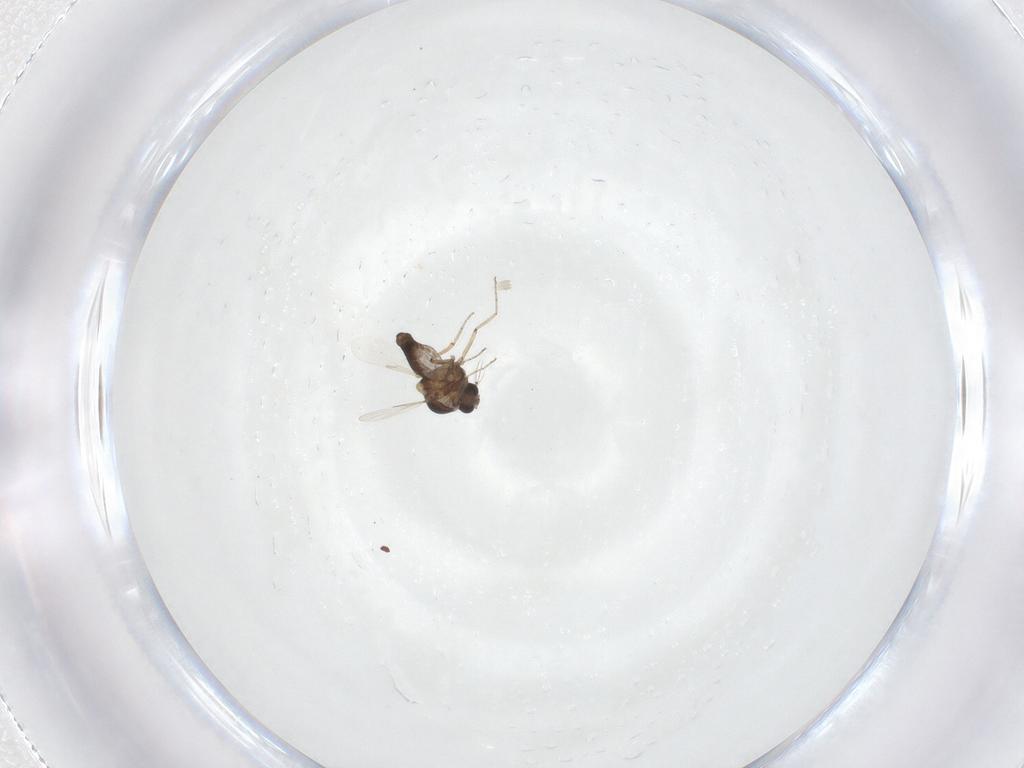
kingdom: Animalia
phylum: Arthropoda
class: Insecta
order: Diptera
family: Ceratopogonidae
